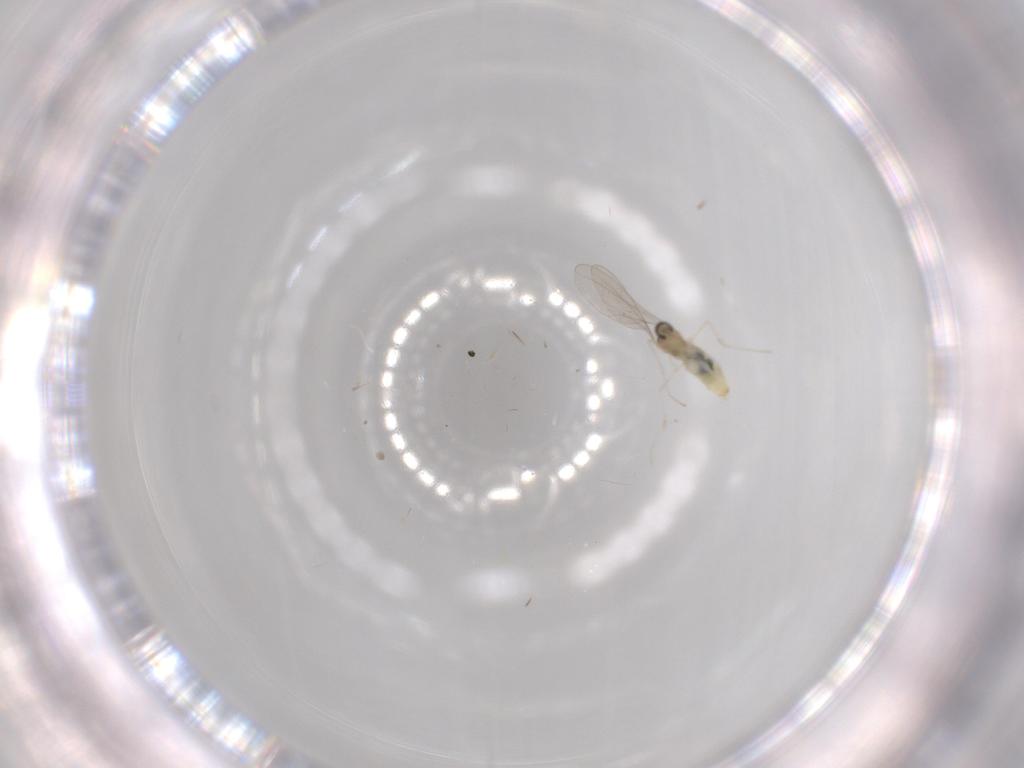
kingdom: Animalia
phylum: Arthropoda
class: Insecta
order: Diptera
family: Cecidomyiidae
